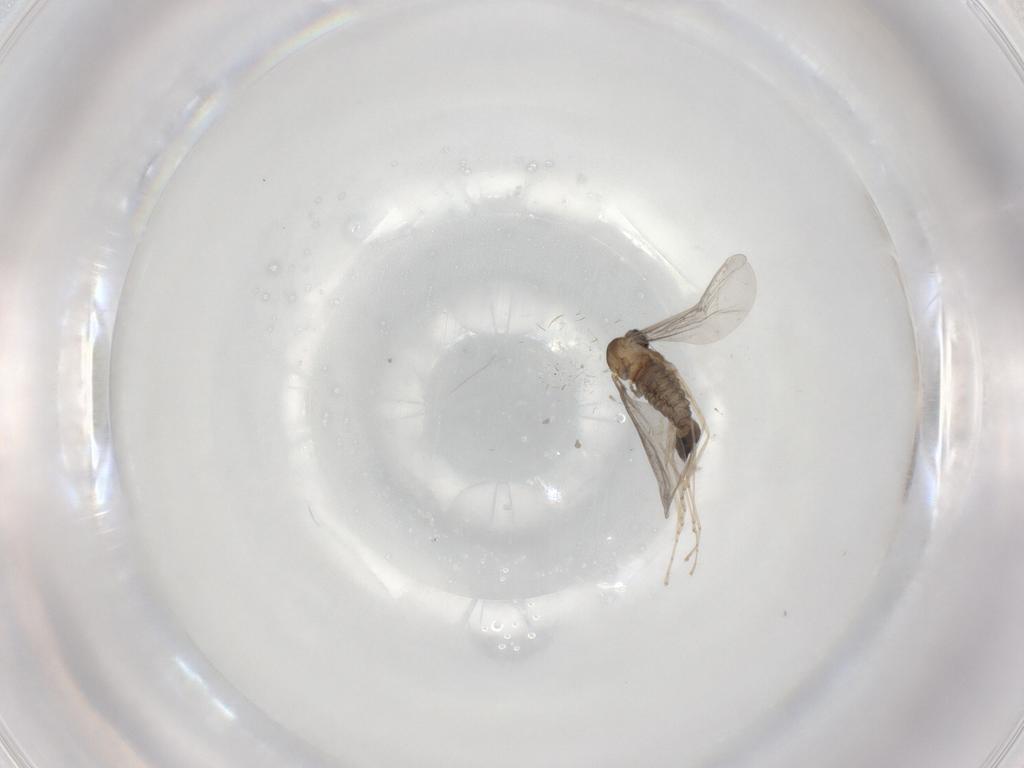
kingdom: Animalia
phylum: Arthropoda
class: Insecta
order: Diptera
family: Cecidomyiidae
